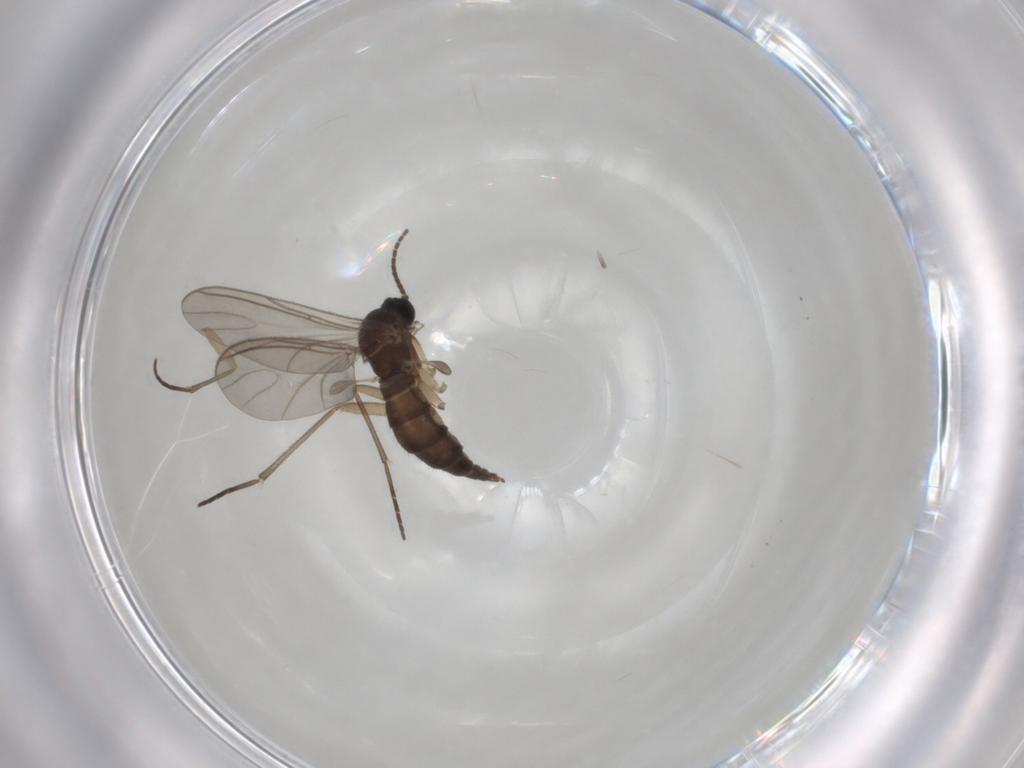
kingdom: Animalia
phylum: Arthropoda
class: Insecta
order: Diptera
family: Sciaridae
